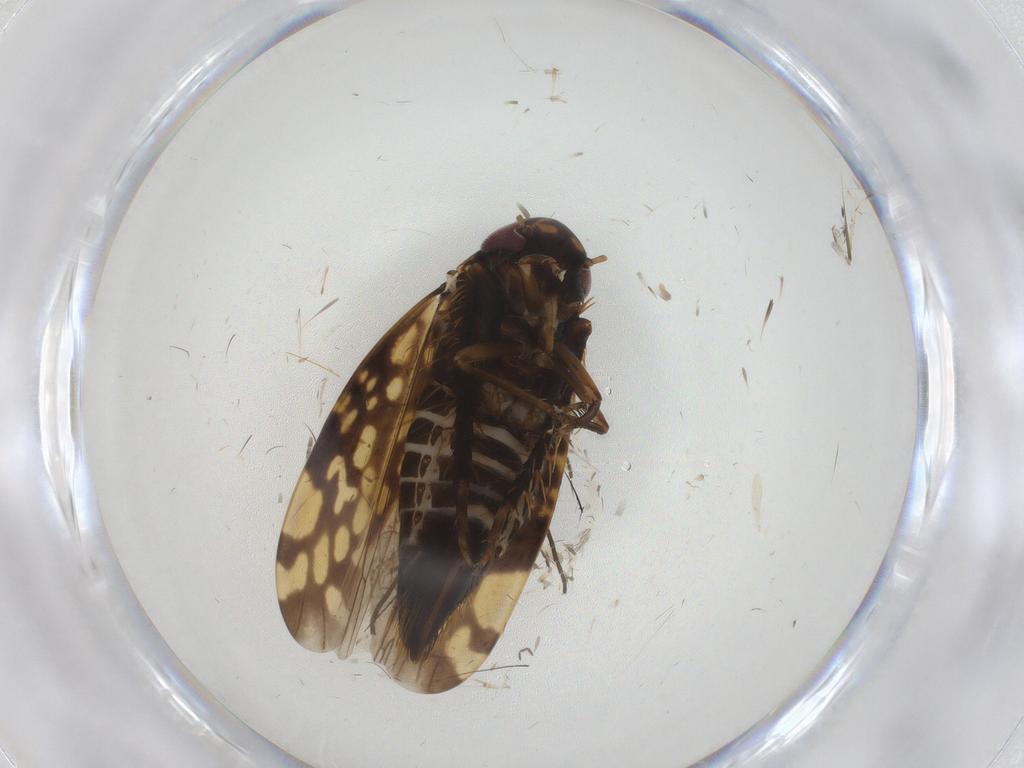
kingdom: Animalia
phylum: Arthropoda
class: Insecta
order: Hemiptera
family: Cicadellidae
